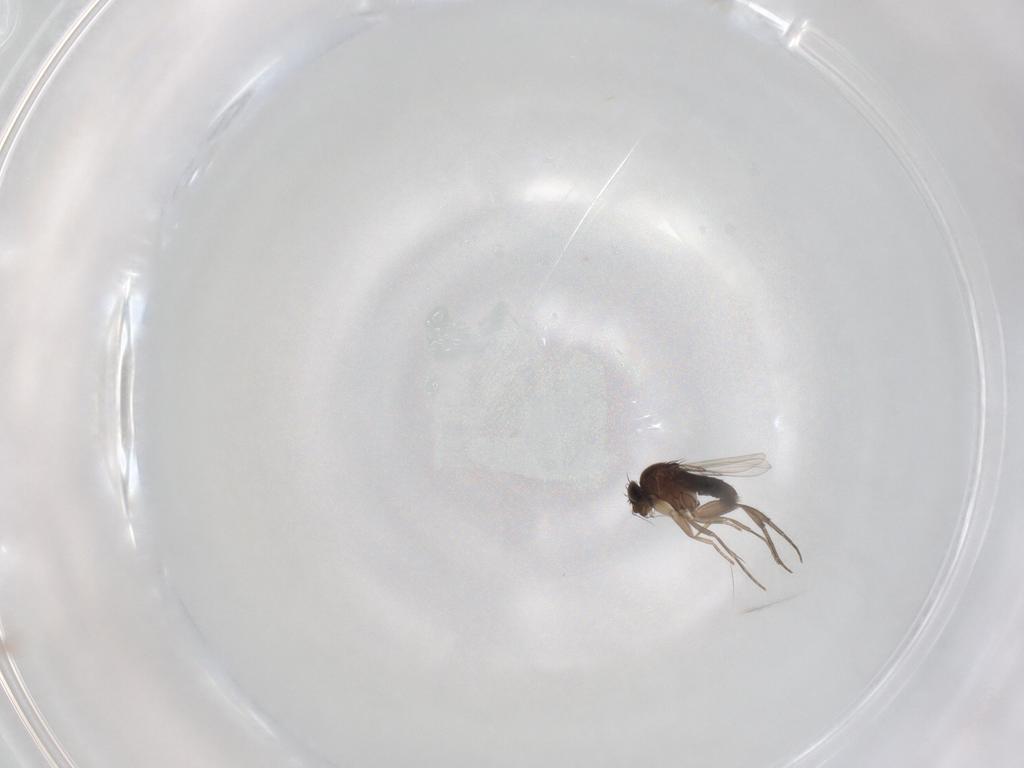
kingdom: Animalia
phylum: Arthropoda
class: Insecta
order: Diptera
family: Phoridae
